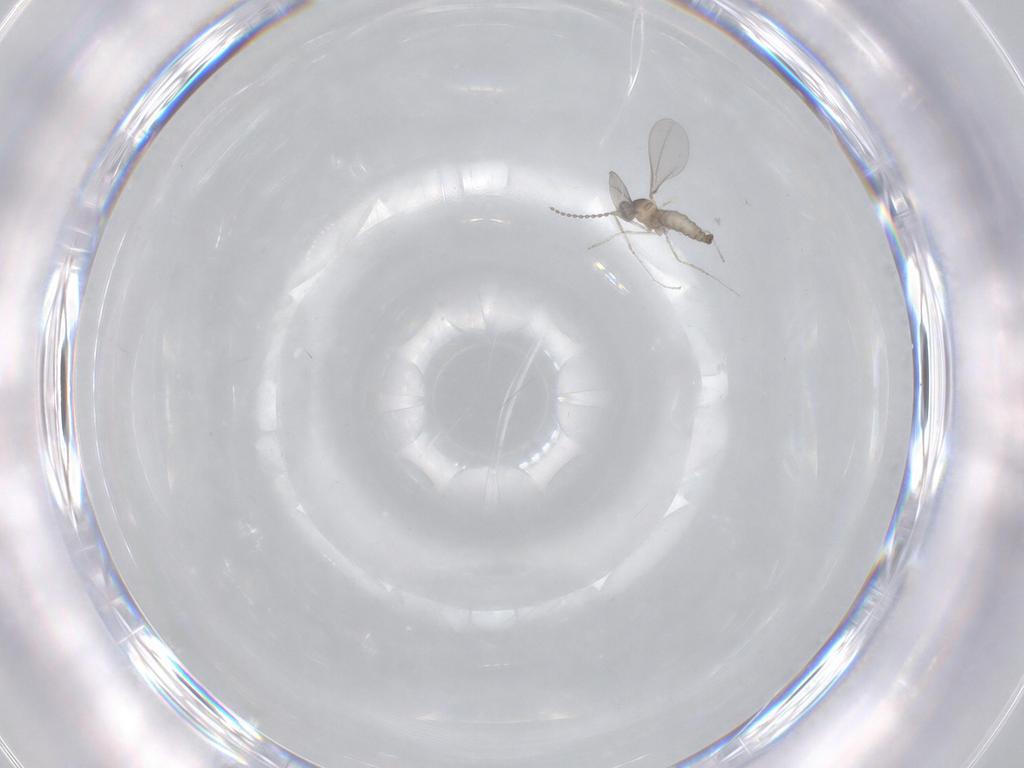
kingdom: Animalia
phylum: Arthropoda
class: Insecta
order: Diptera
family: Cecidomyiidae
